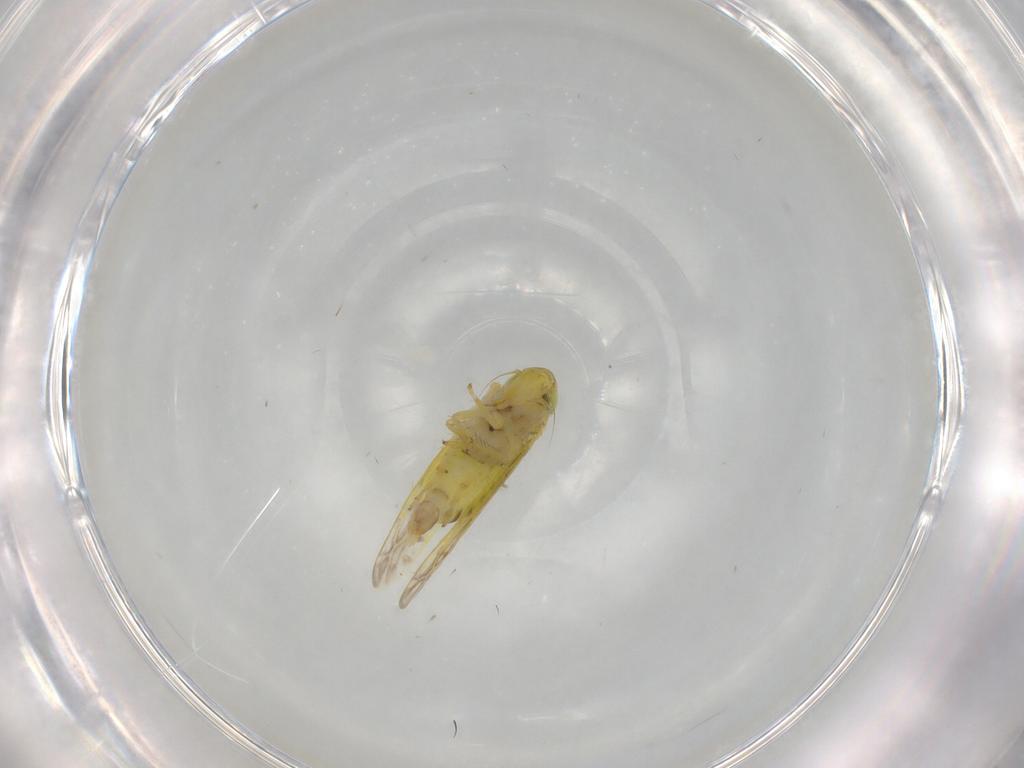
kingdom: Animalia
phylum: Arthropoda
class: Insecta
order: Hemiptera
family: Cicadellidae
